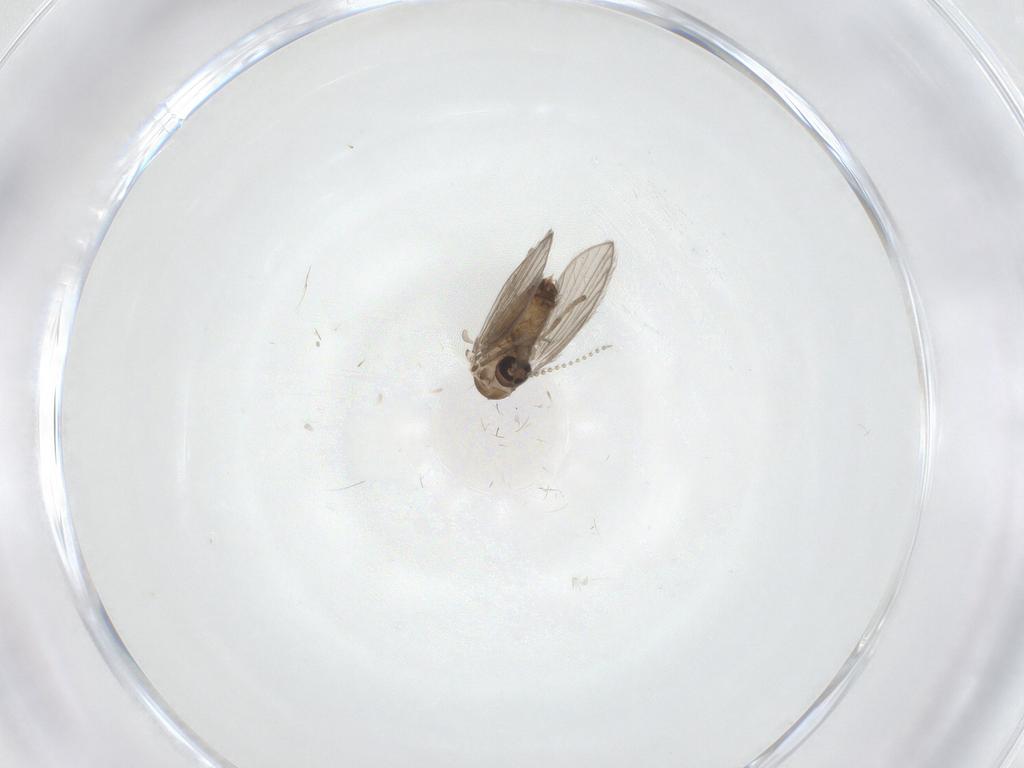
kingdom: Animalia
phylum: Arthropoda
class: Insecta
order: Diptera
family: Psychodidae
